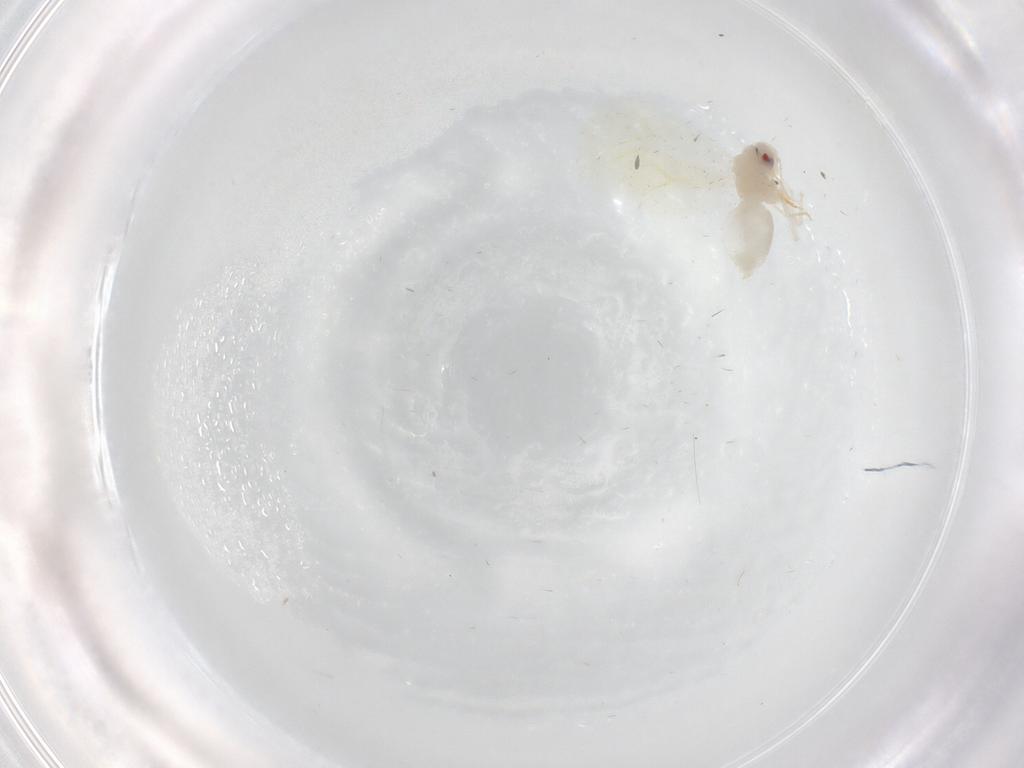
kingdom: Animalia
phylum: Arthropoda
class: Insecta
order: Hemiptera
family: Aleyrodidae
